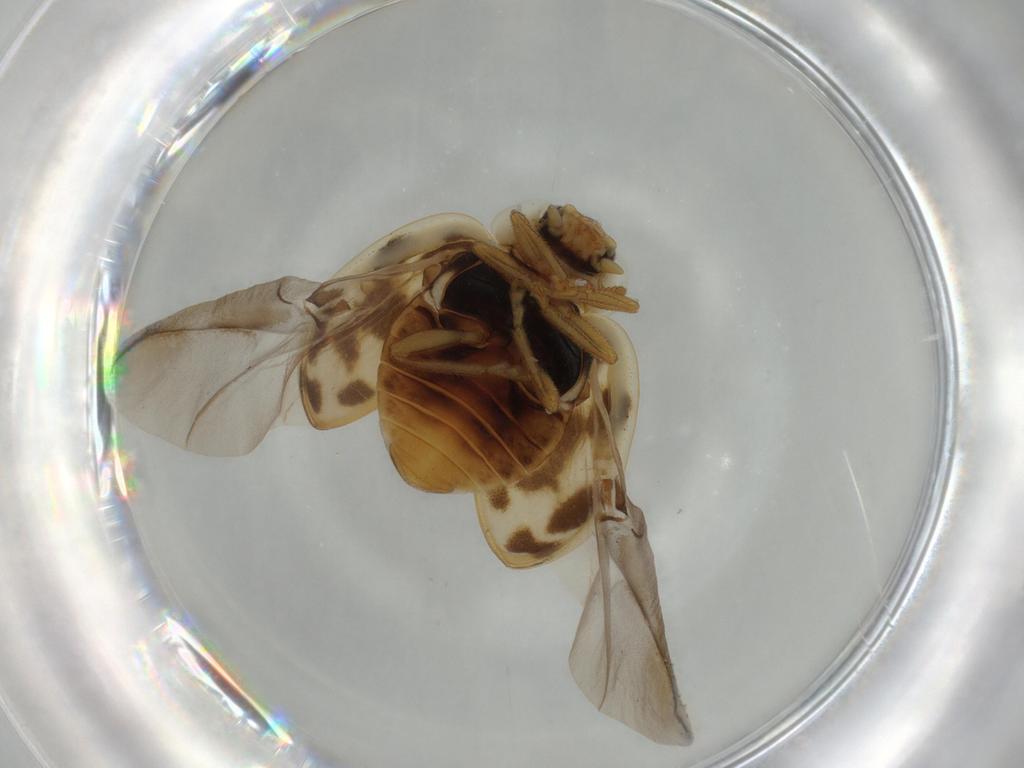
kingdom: Animalia
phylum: Arthropoda
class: Insecta
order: Coleoptera
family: Coccinellidae
